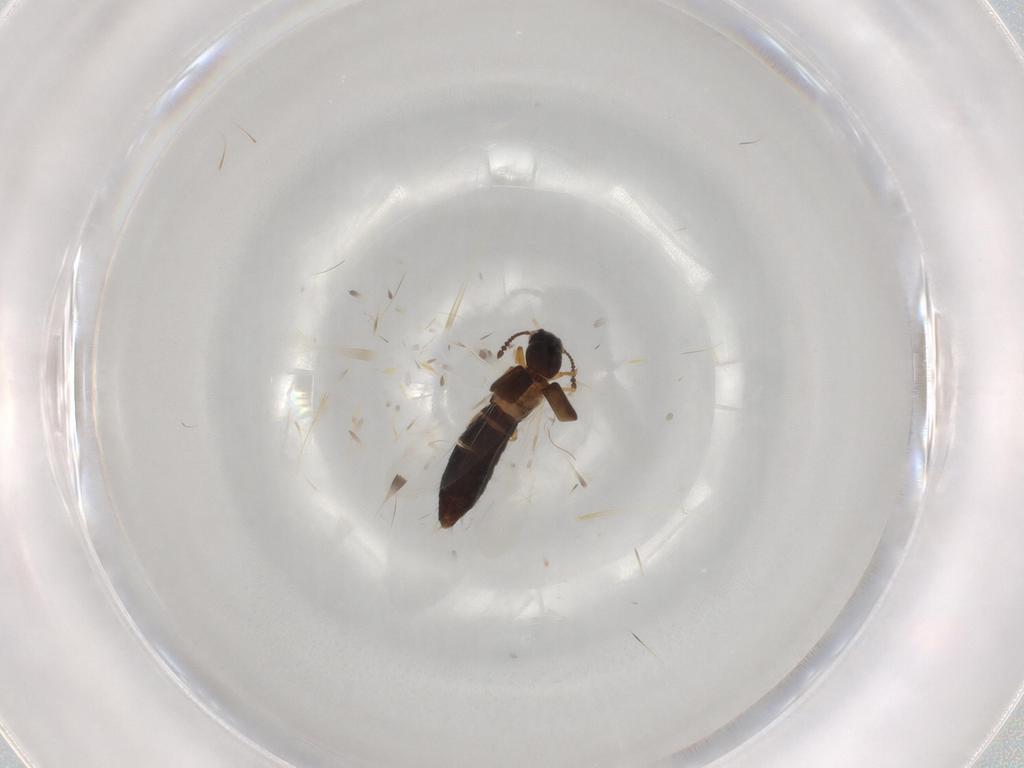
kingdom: Animalia
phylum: Arthropoda
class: Insecta
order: Coleoptera
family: Staphylinidae
